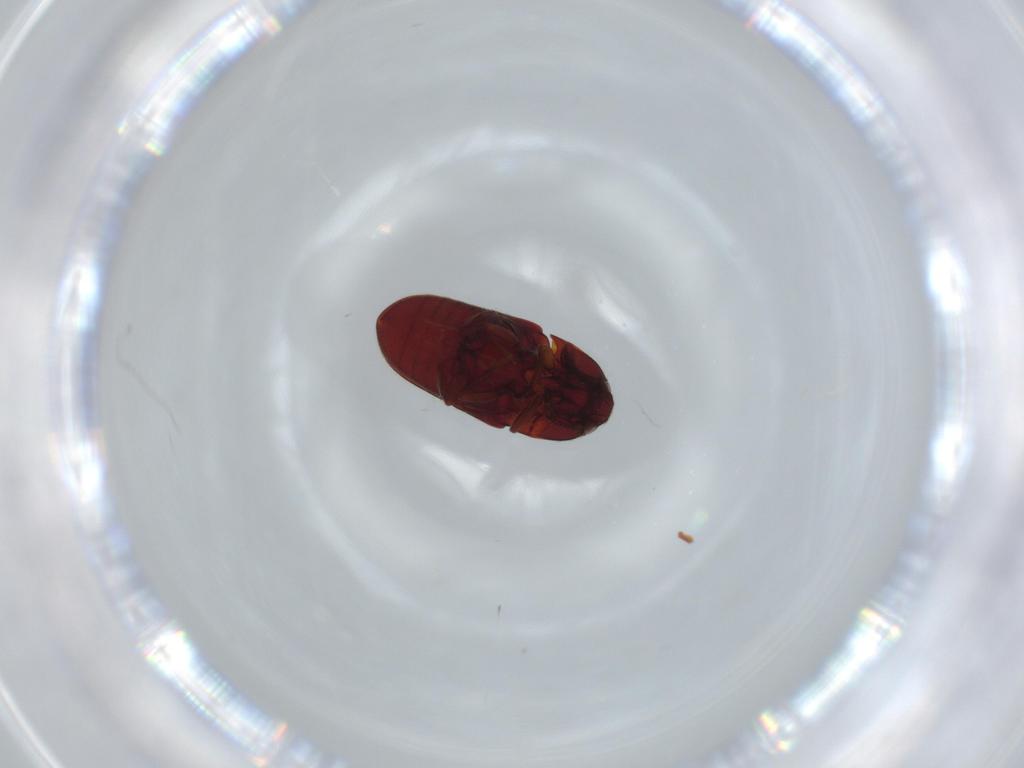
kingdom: Animalia
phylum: Arthropoda
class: Insecta
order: Coleoptera
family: Throscidae
